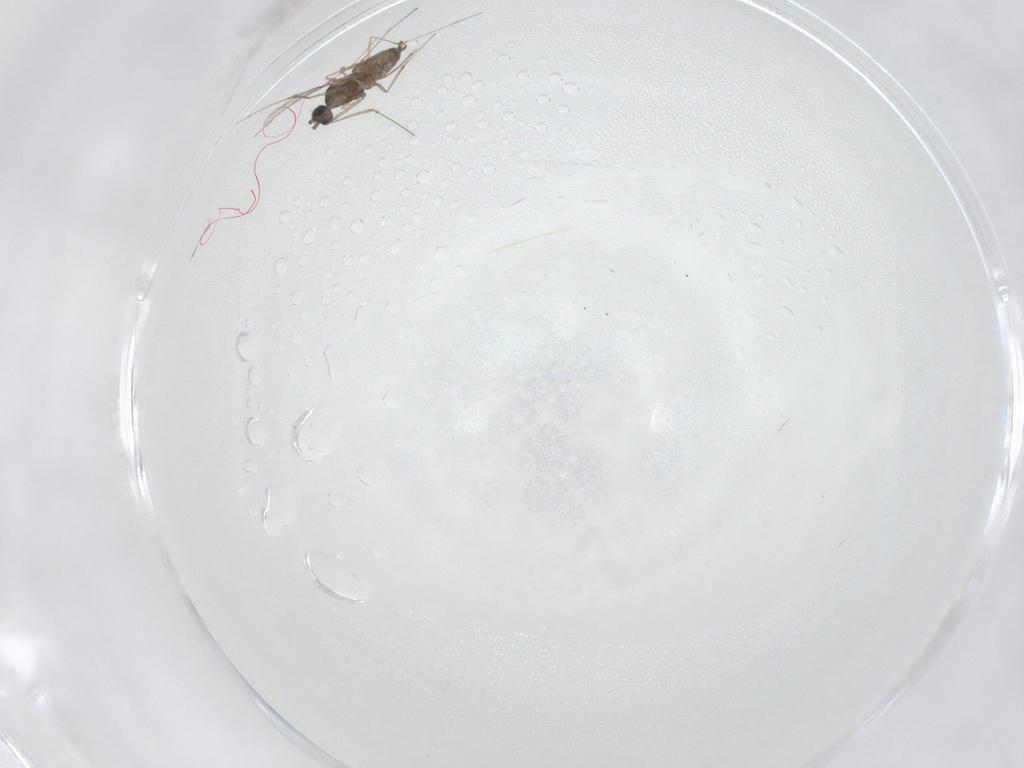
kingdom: Animalia
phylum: Arthropoda
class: Insecta
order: Diptera
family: Cecidomyiidae
